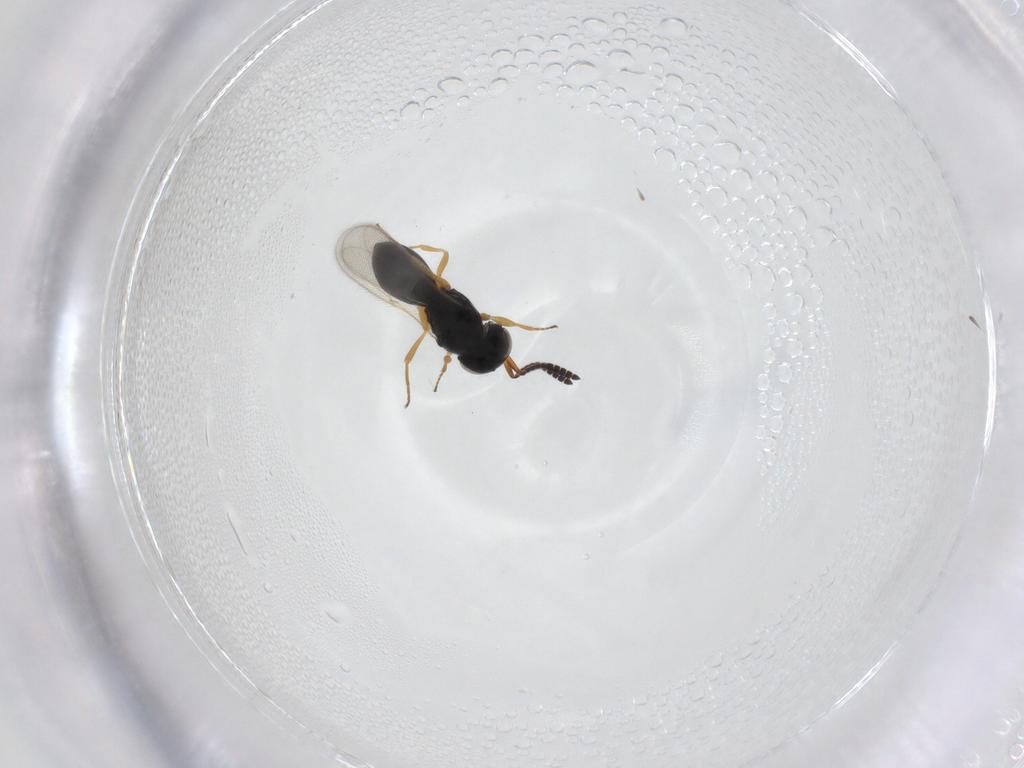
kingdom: Animalia
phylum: Arthropoda
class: Insecta
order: Hymenoptera
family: Scelionidae
